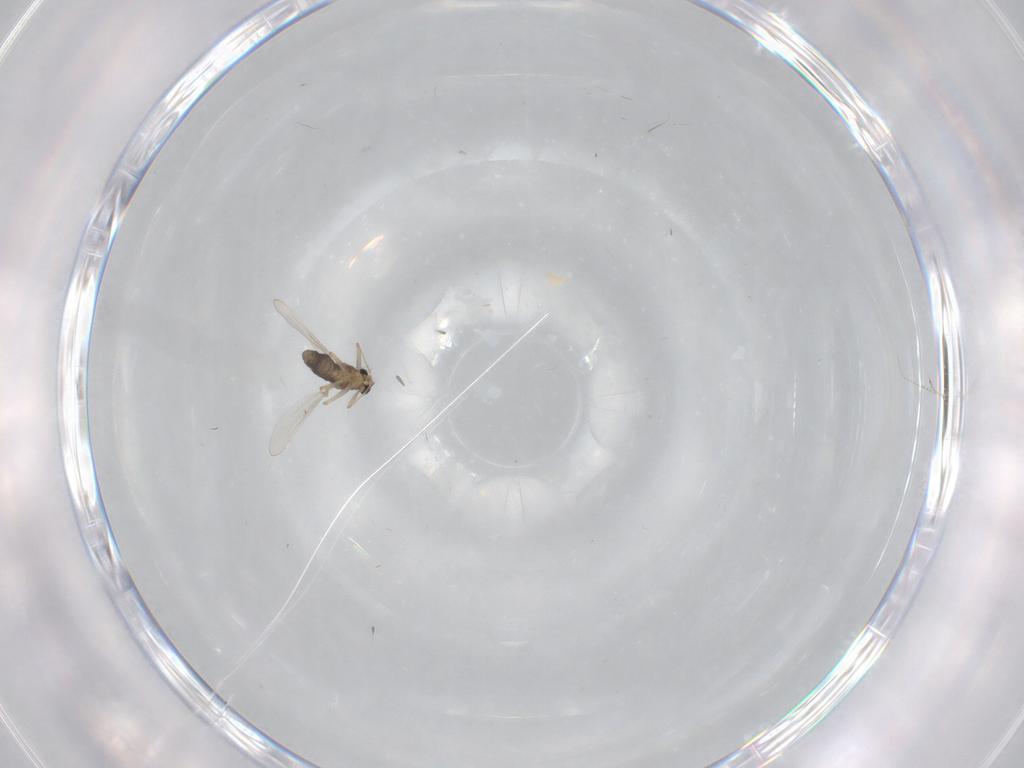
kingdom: Animalia
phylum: Arthropoda
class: Insecta
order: Diptera
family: Chironomidae
